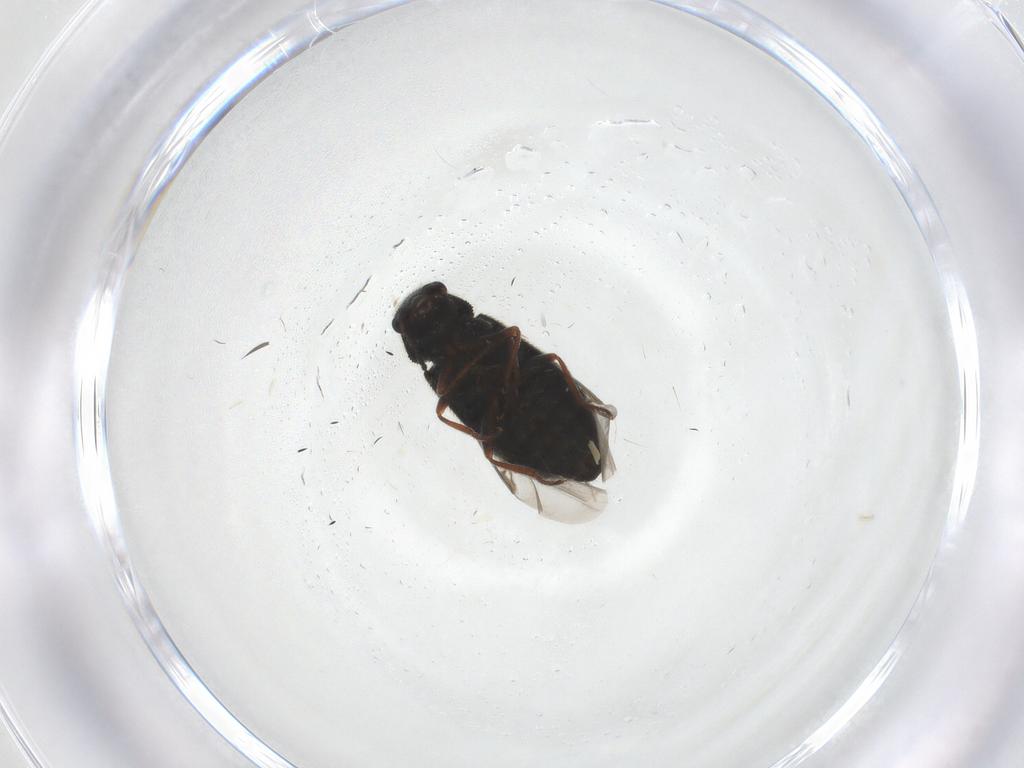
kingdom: Animalia
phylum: Arthropoda
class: Insecta
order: Coleoptera
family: Melyridae
